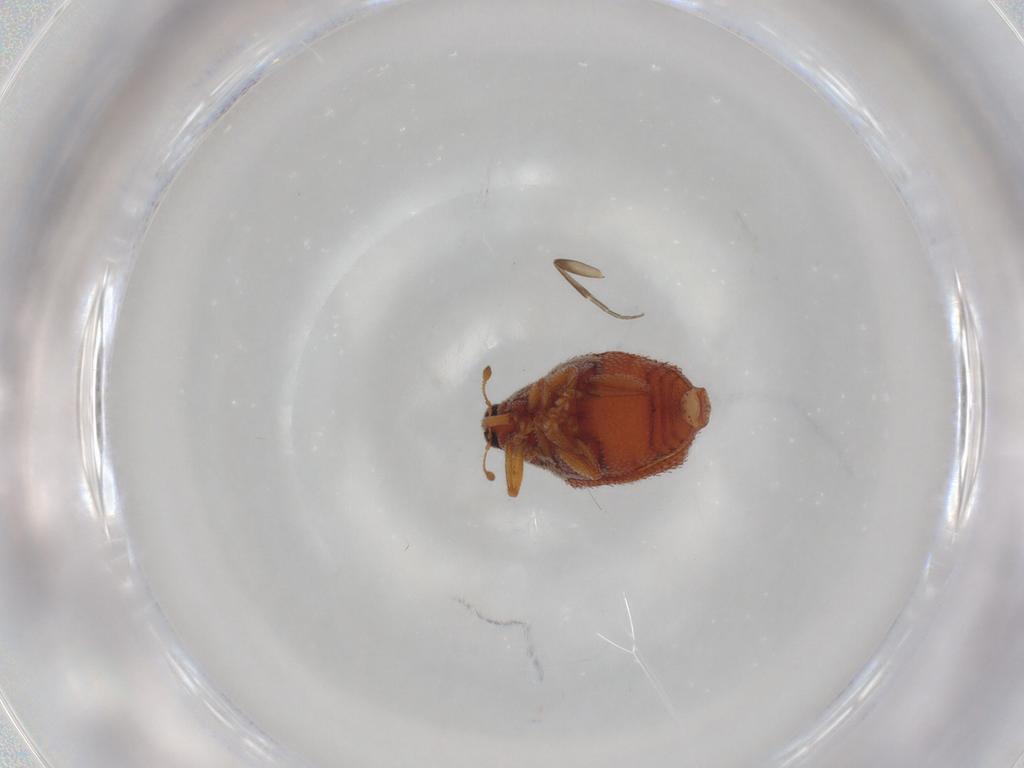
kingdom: Animalia
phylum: Arthropoda
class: Insecta
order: Coleoptera
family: Curculionidae
